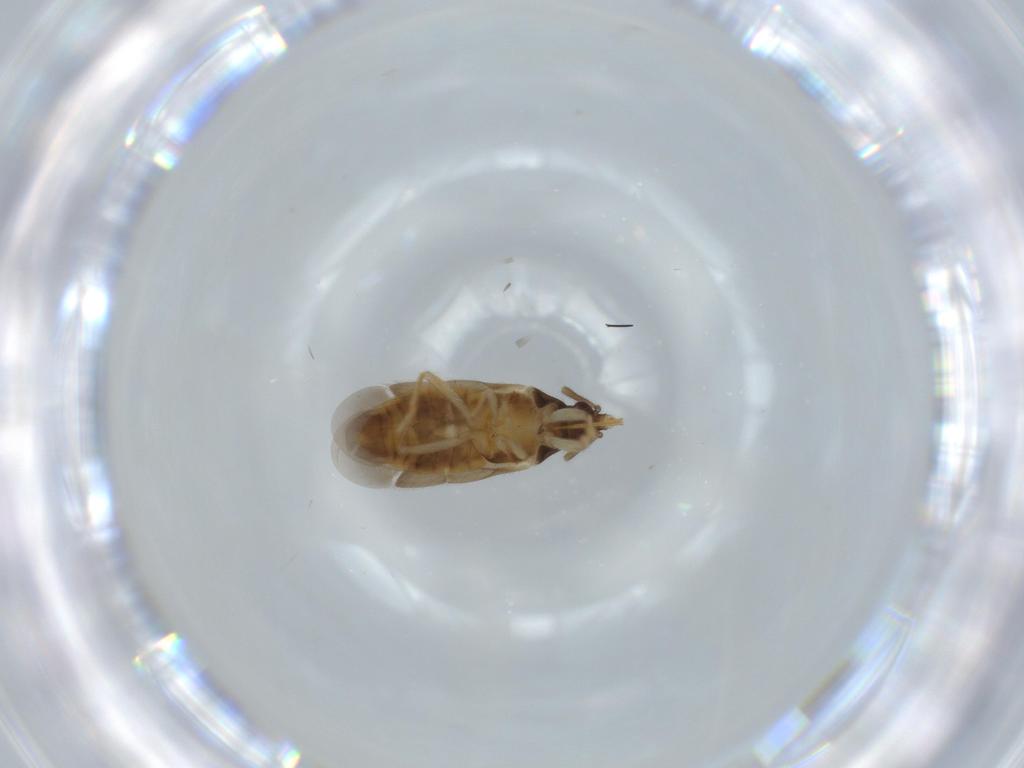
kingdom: Animalia
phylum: Arthropoda
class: Insecta
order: Hemiptera
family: Lasiochilidae
